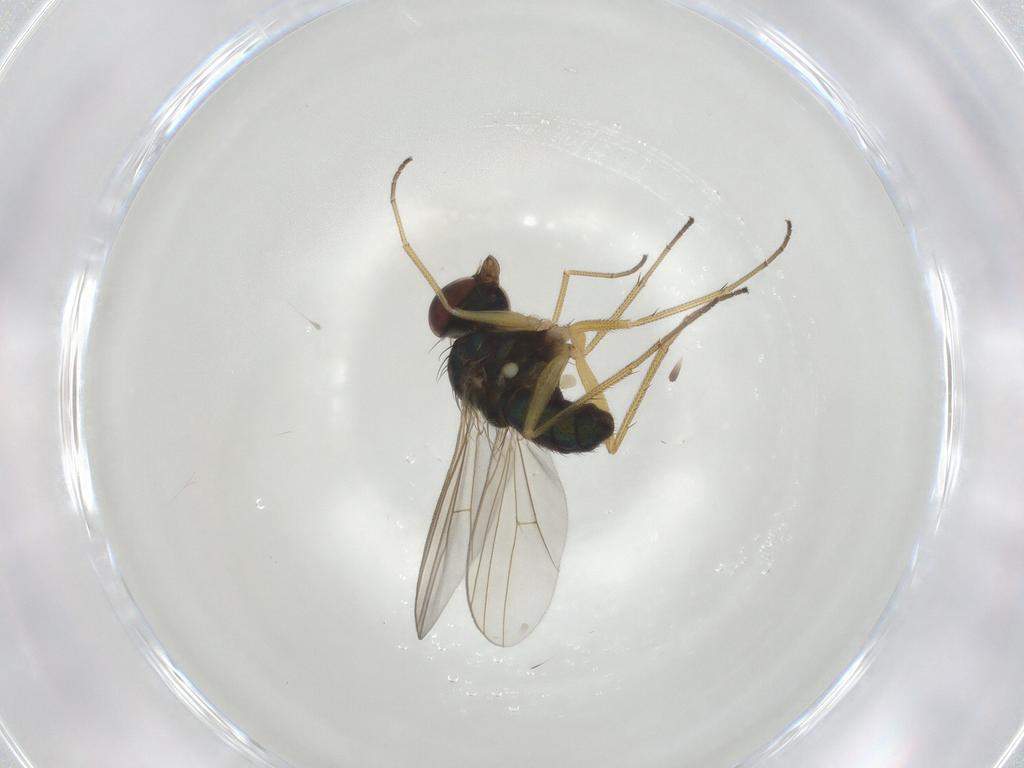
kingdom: Animalia
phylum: Arthropoda
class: Insecta
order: Diptera
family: Dolichopodidae
